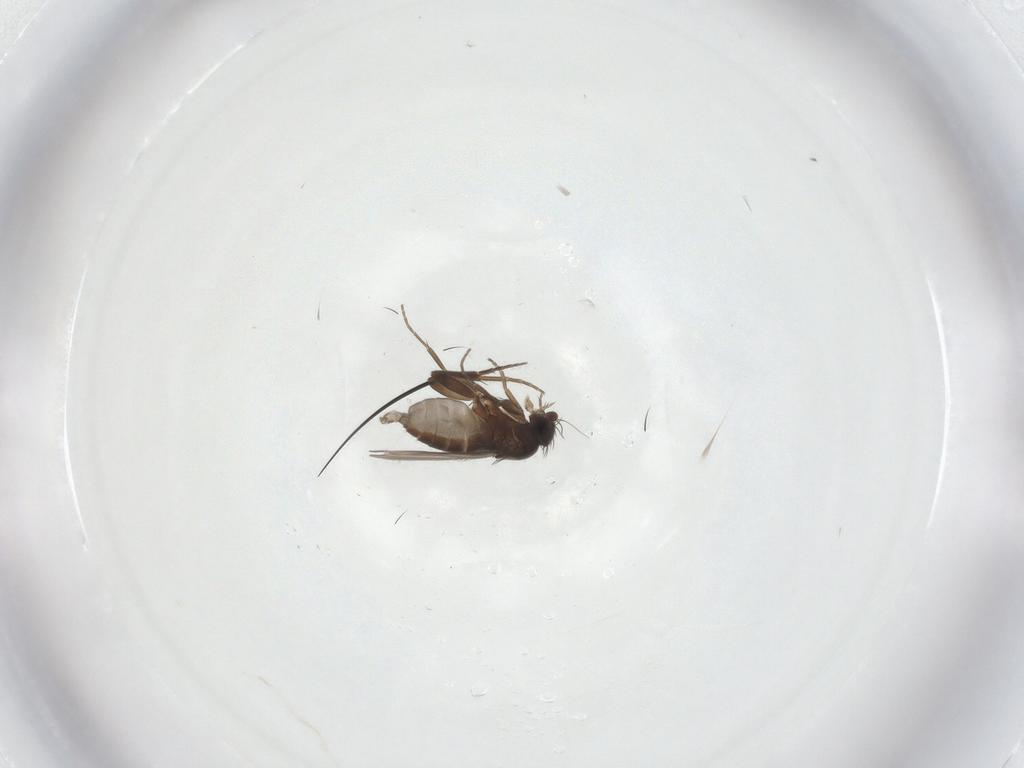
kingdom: Animalia
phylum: Arthropoda
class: Insecta
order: Diptera
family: Phoridae
